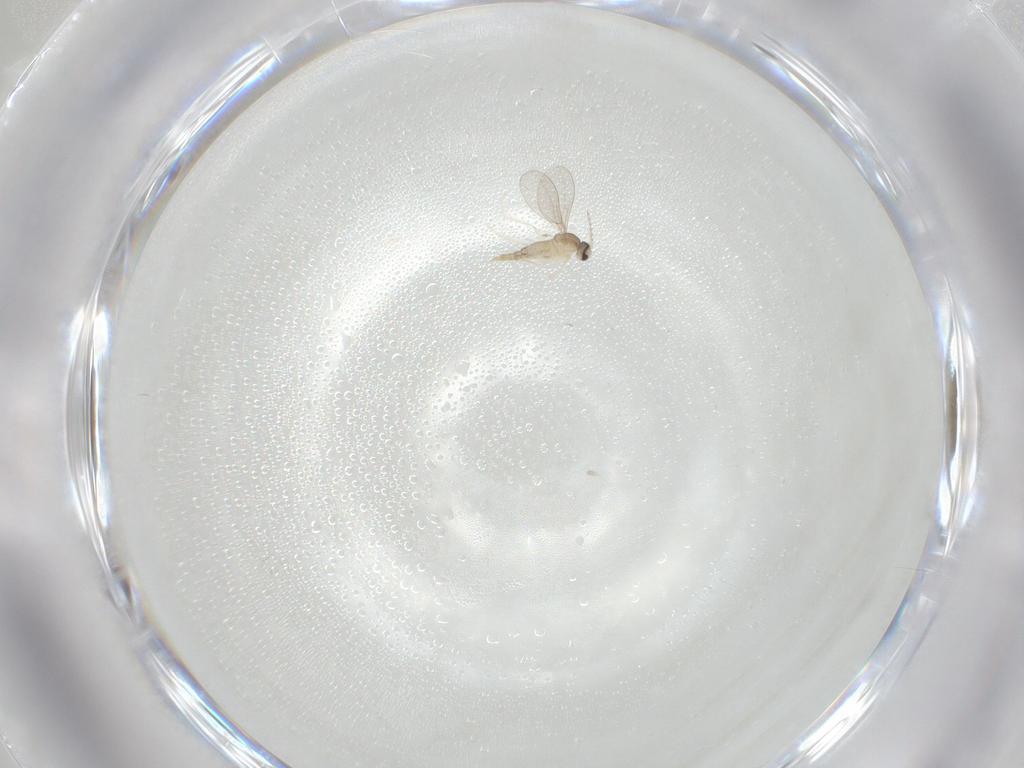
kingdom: Animalia
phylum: Arthropoda
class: Insecta
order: Diptera
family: Cecidomyiidae
